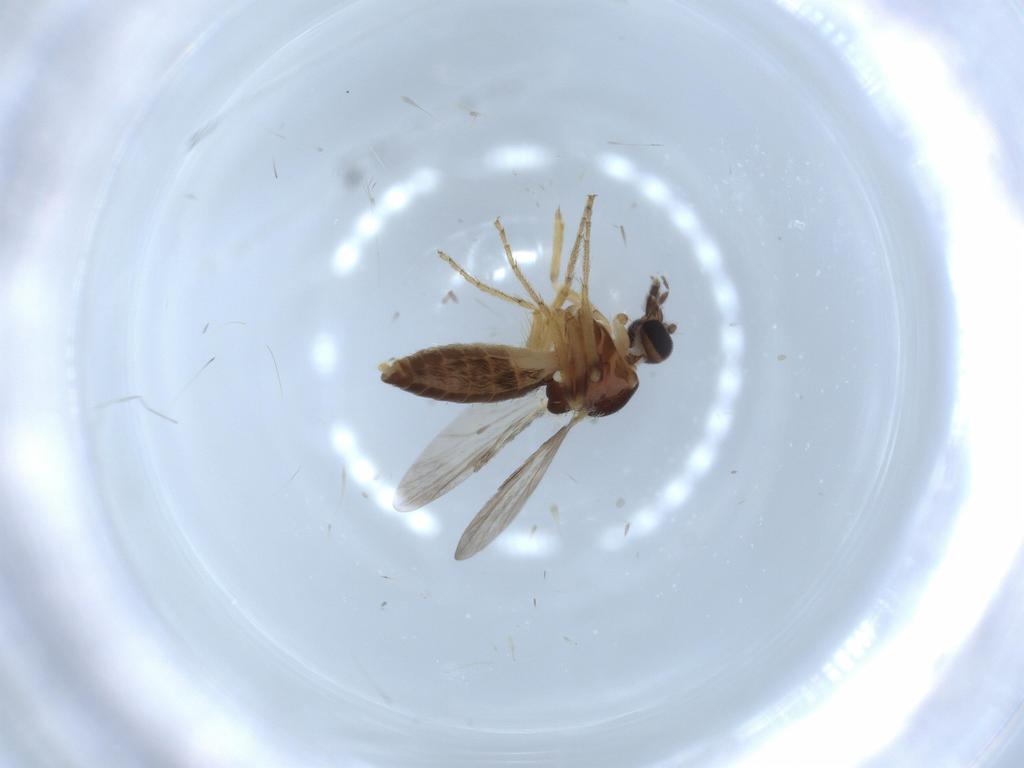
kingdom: Animalia
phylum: Arthropoda
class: Insecta
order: Diptera
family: Ceratopogonidae
